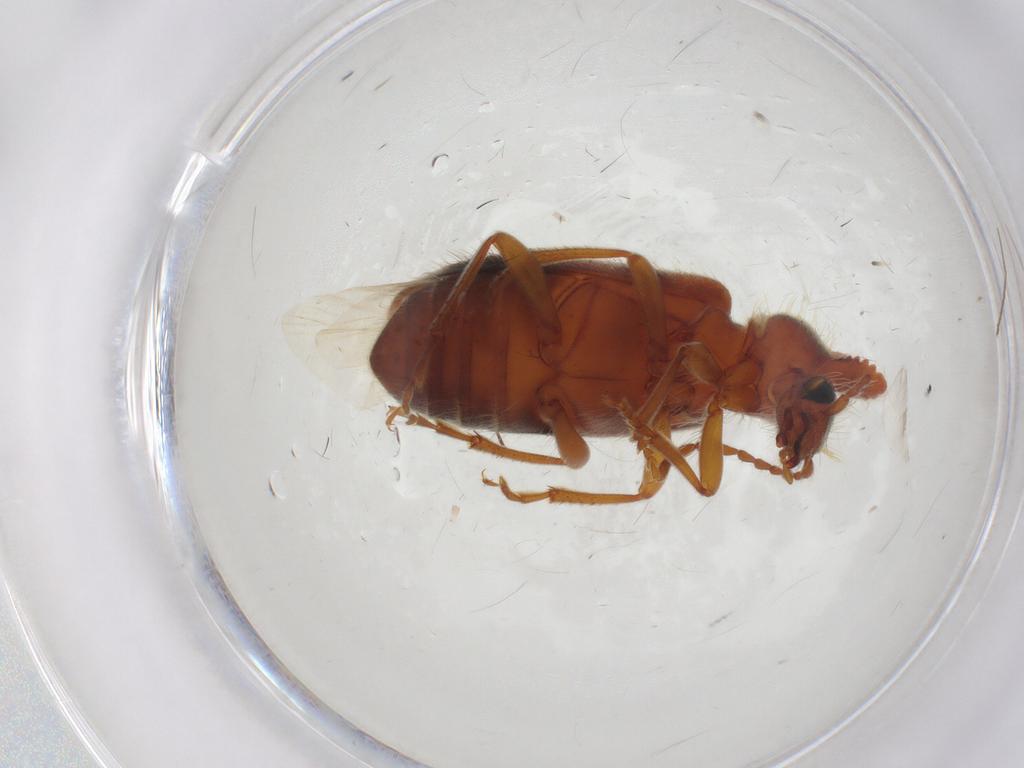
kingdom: Animalia
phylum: Arthropoda
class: Insecta
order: Coleoptera
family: Anthicidae
